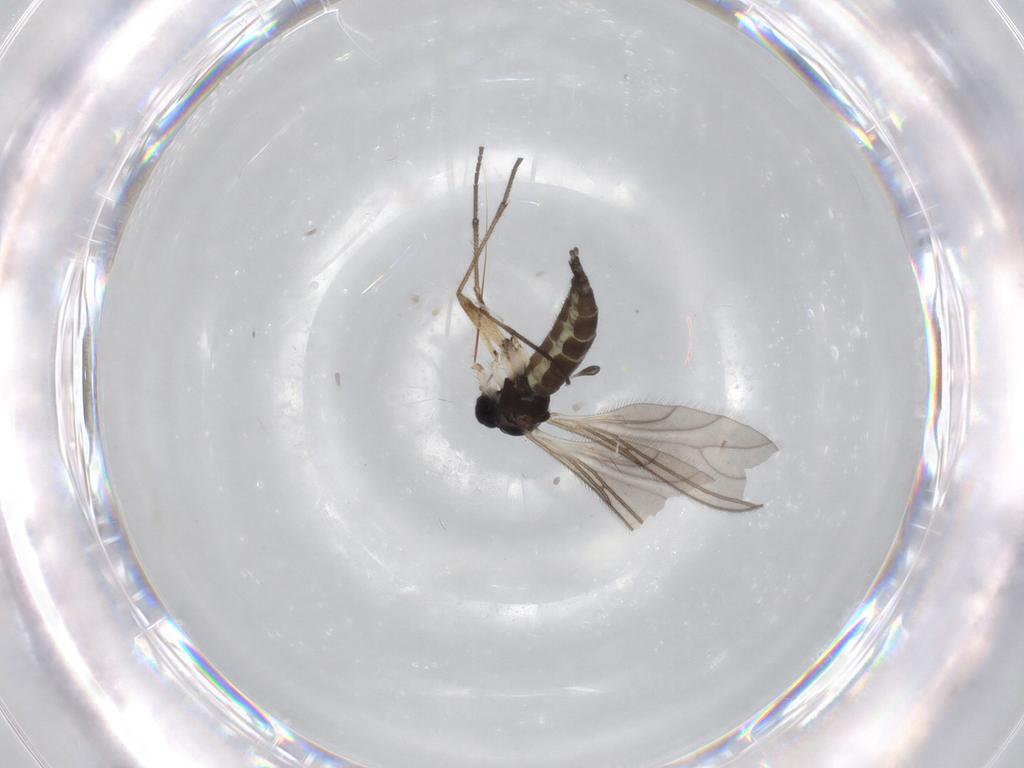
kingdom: Animalia
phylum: Arthropoda
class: Insecta
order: Diptera
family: Sciaridae
